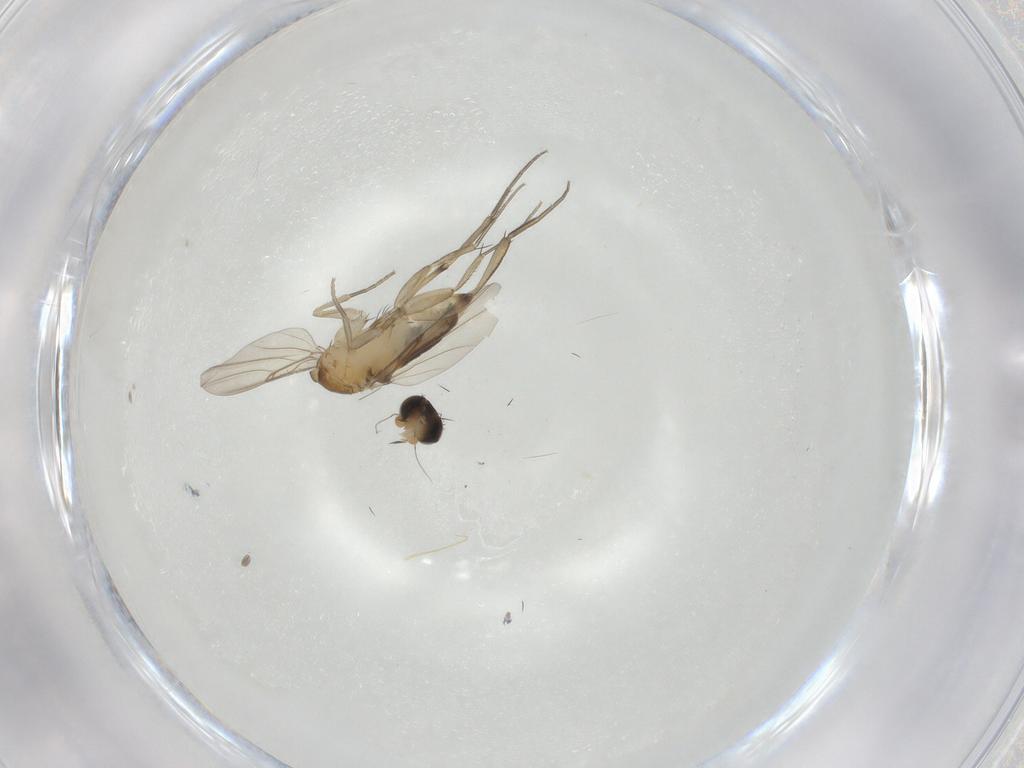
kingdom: Animalia
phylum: Arthropoda
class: Insecta
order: Diptera
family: Phoridae
